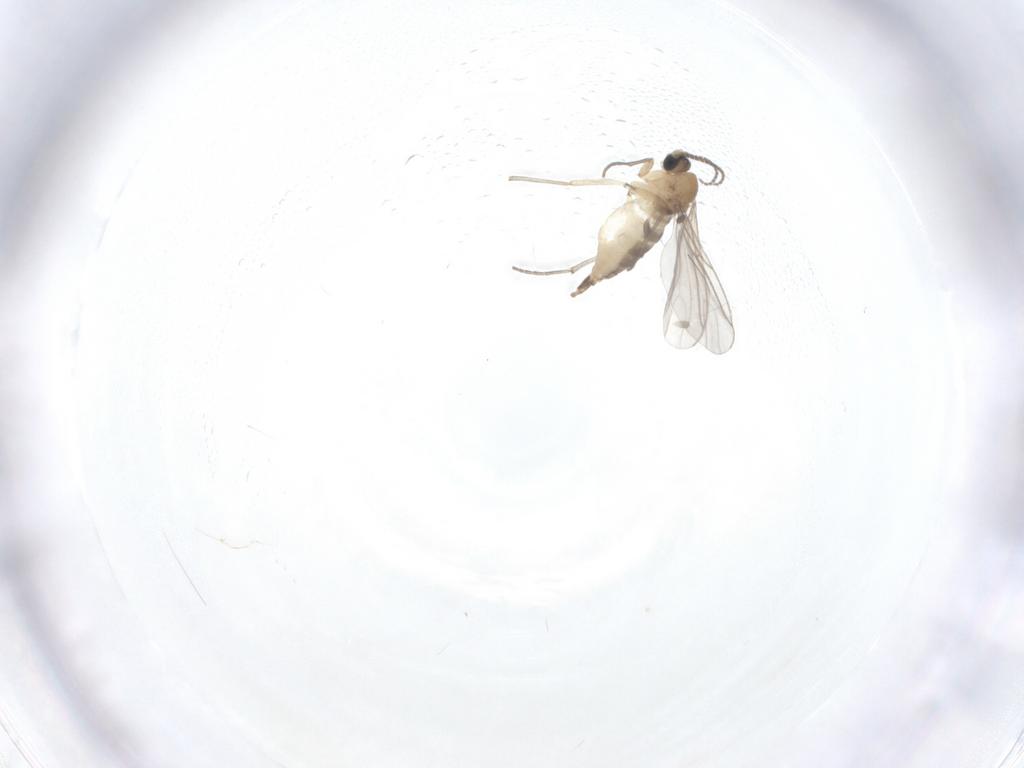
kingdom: Animalia
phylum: Arthropoda
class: Insecta
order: Diptera
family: Sciaridae
